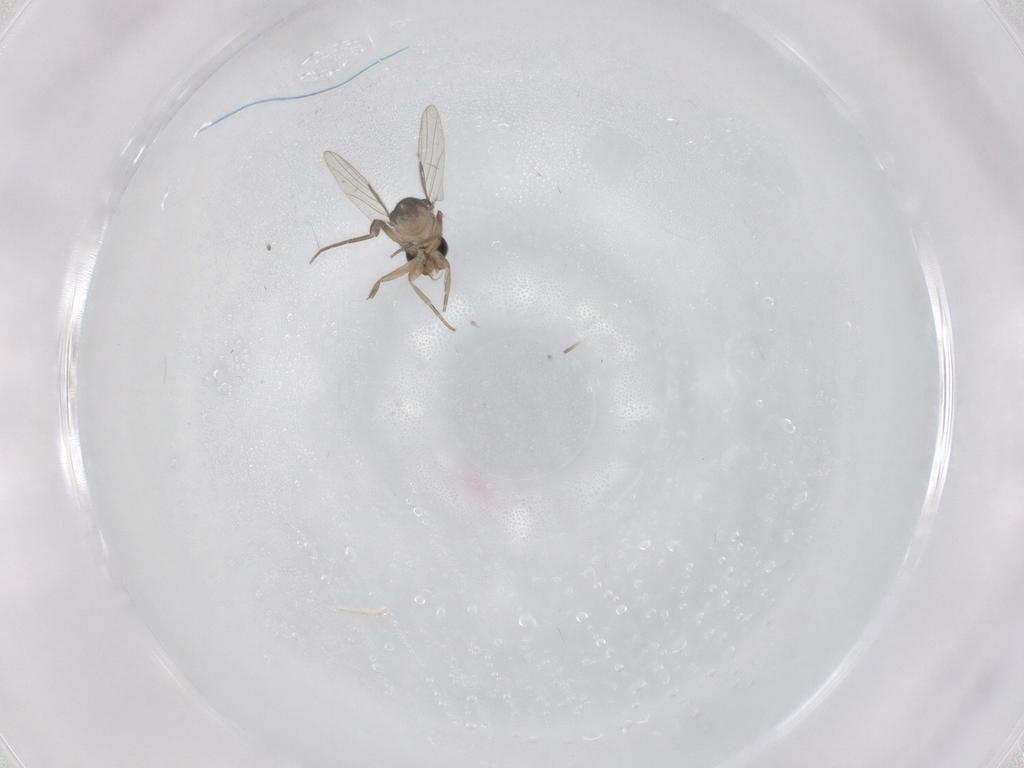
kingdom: Animalia
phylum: Arthropoda
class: Insecta
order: Diptera
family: Phoridae
